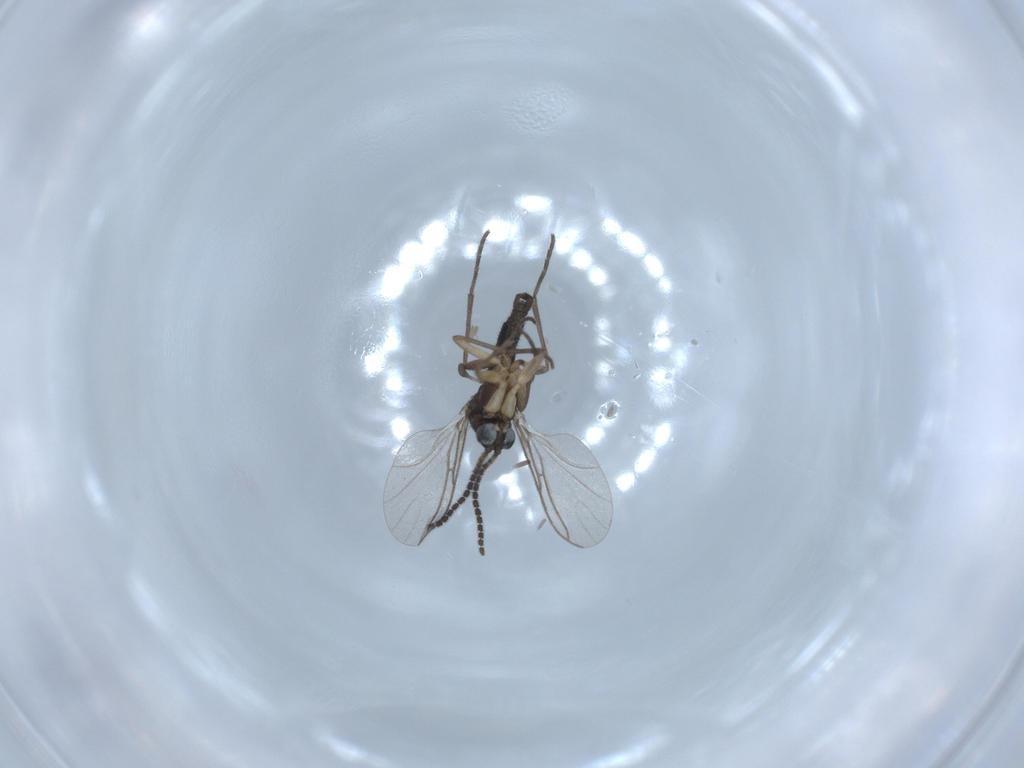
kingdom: Animalia
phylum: Arthropoda
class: Insecta
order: Diptera
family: Sciaridae
